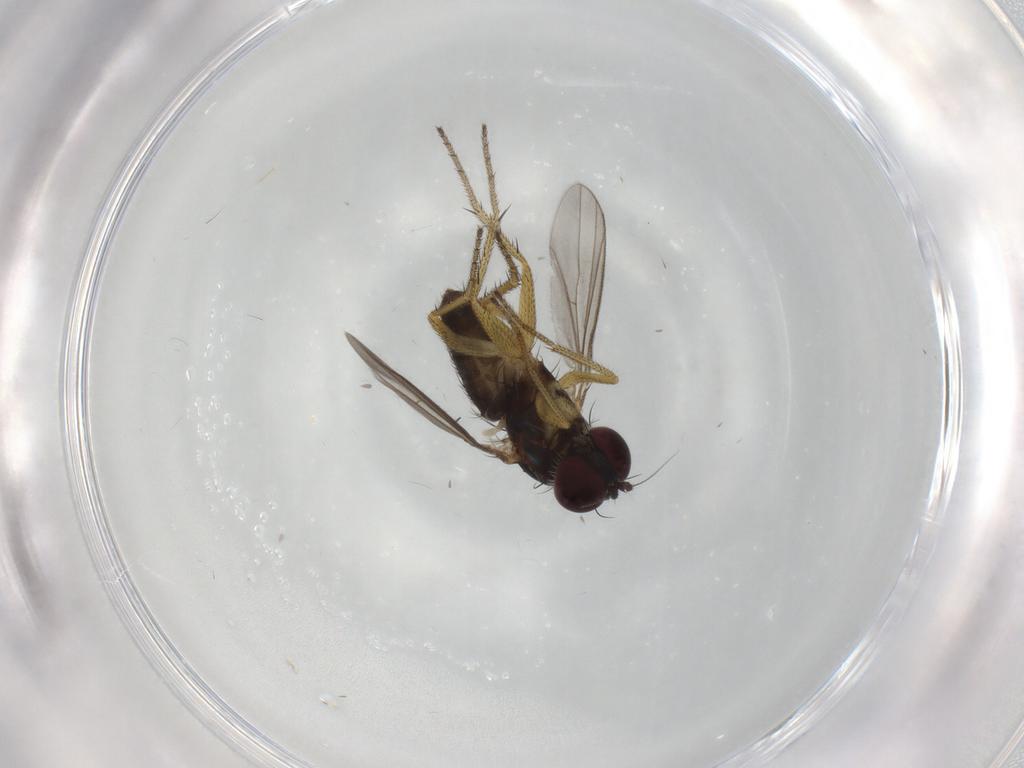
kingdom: Animalia
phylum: Arthropoda
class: Insecta
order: Diptera
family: Dolichopodidae
